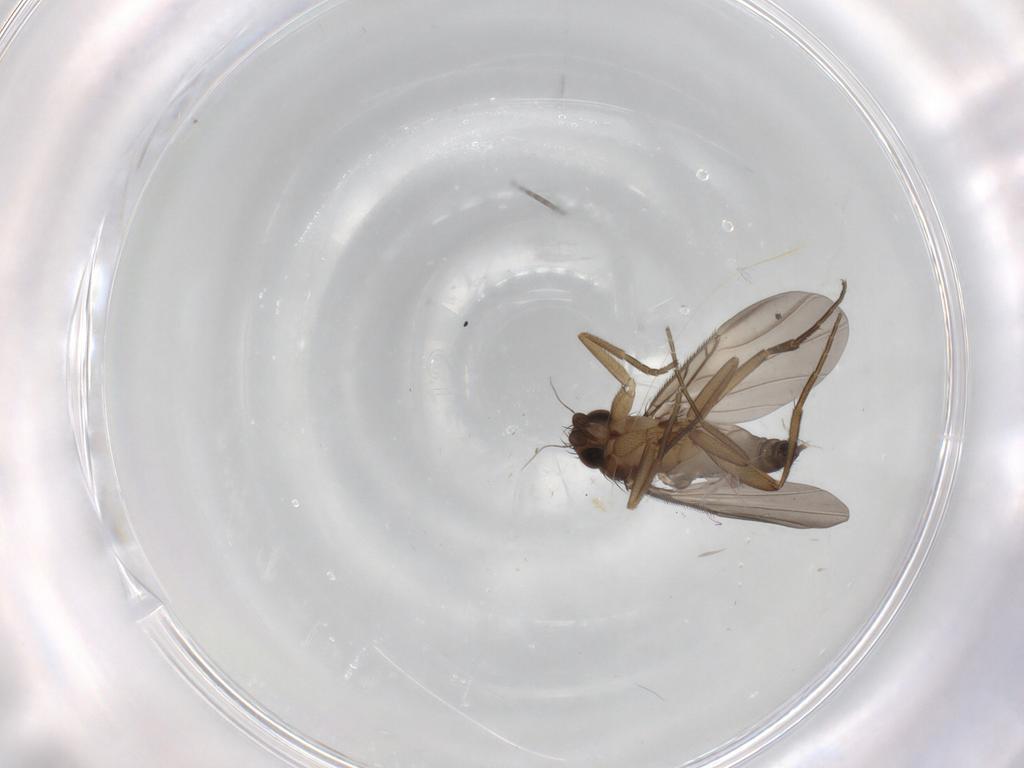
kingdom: Animalia
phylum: Arthropoda
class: Insecta
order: Diptera
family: Phoridae
